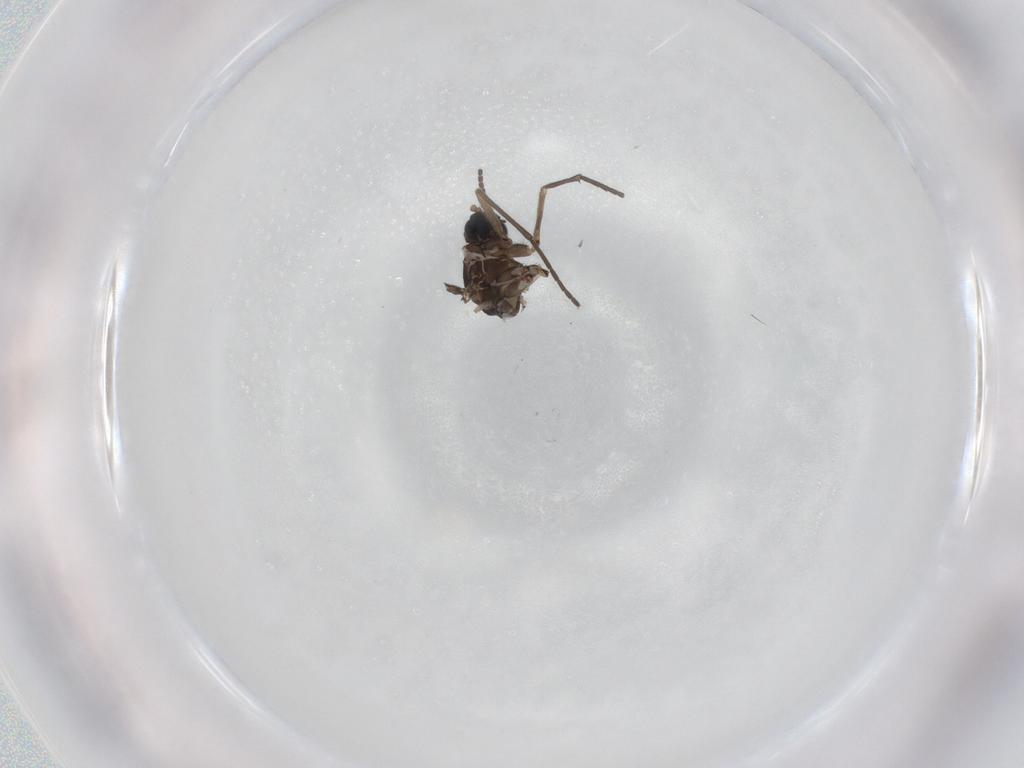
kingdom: Animalia
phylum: Arthropoda
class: Insecta
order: Diptera
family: Sciaridae
